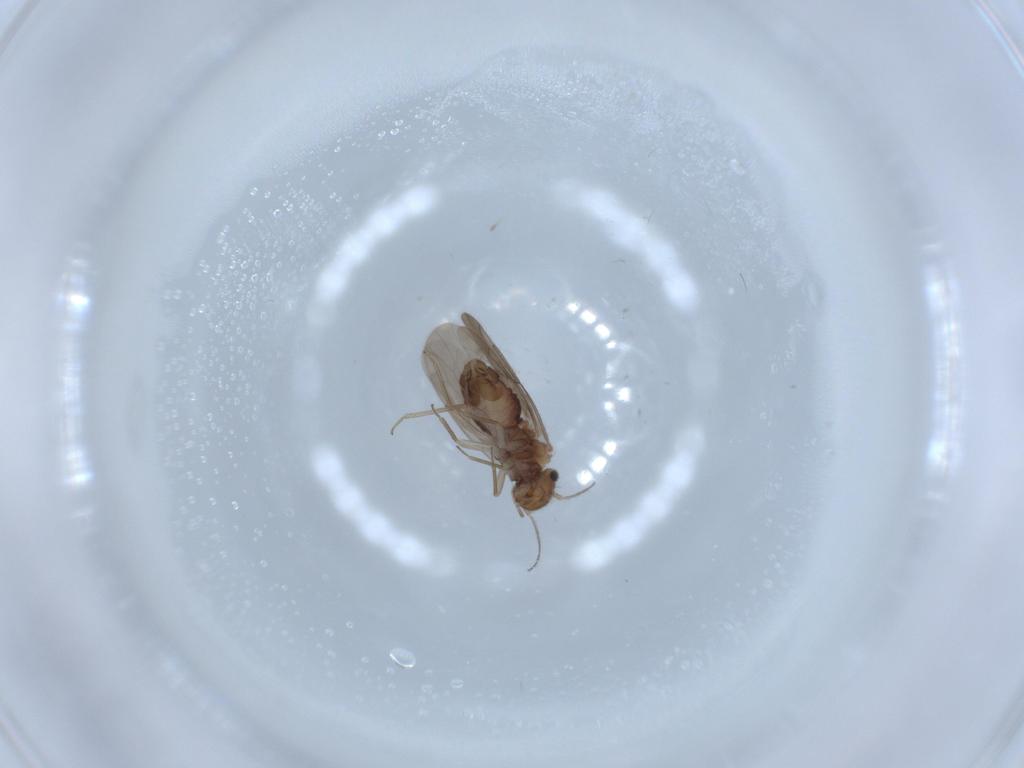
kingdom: Animalia
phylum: Arthropoda
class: Insecta
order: Psocodea
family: Ectopsocidae
